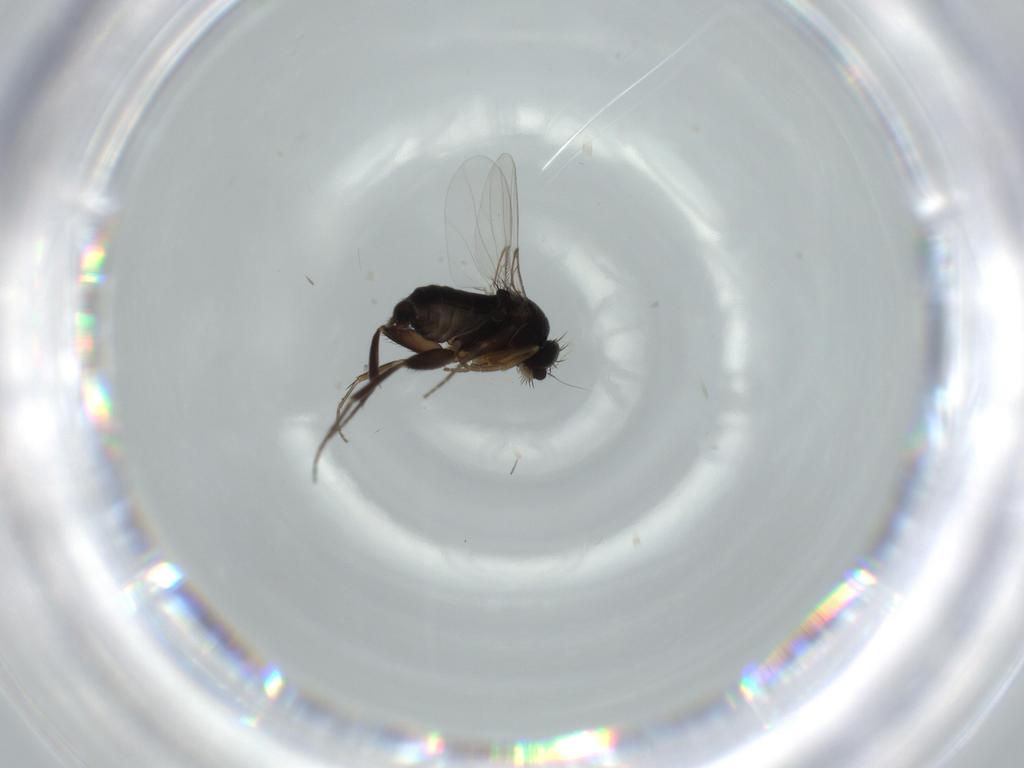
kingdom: Animalia
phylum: Arthropoda
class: Insecta
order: Diptera
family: Phoridae
